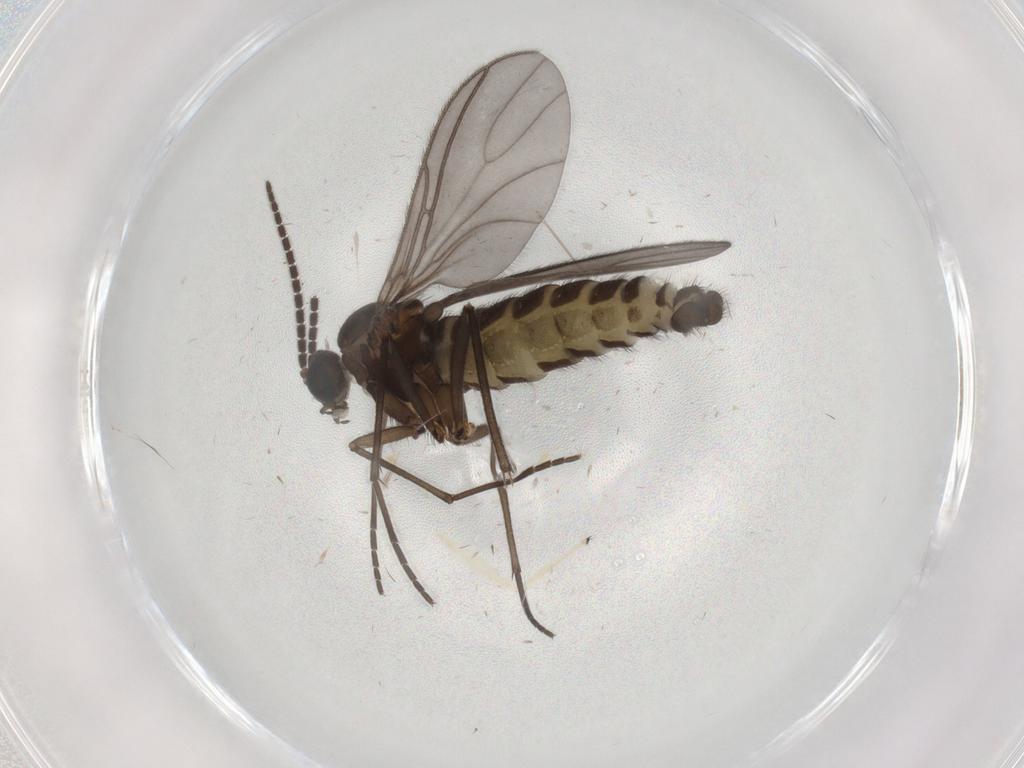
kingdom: Animalia
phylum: Arthropoda
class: Insecta
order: Diptera
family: Sciaridae
